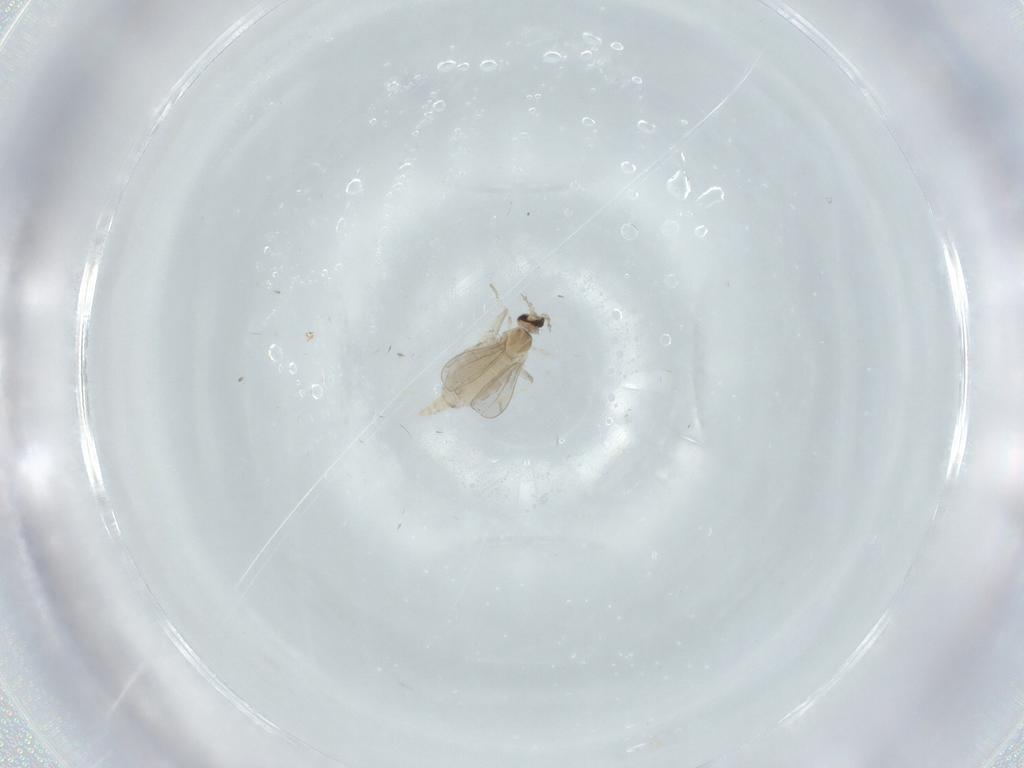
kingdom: Animalia
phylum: Arthropoda
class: Insecta
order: Diptera
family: Cecidomyiidae
